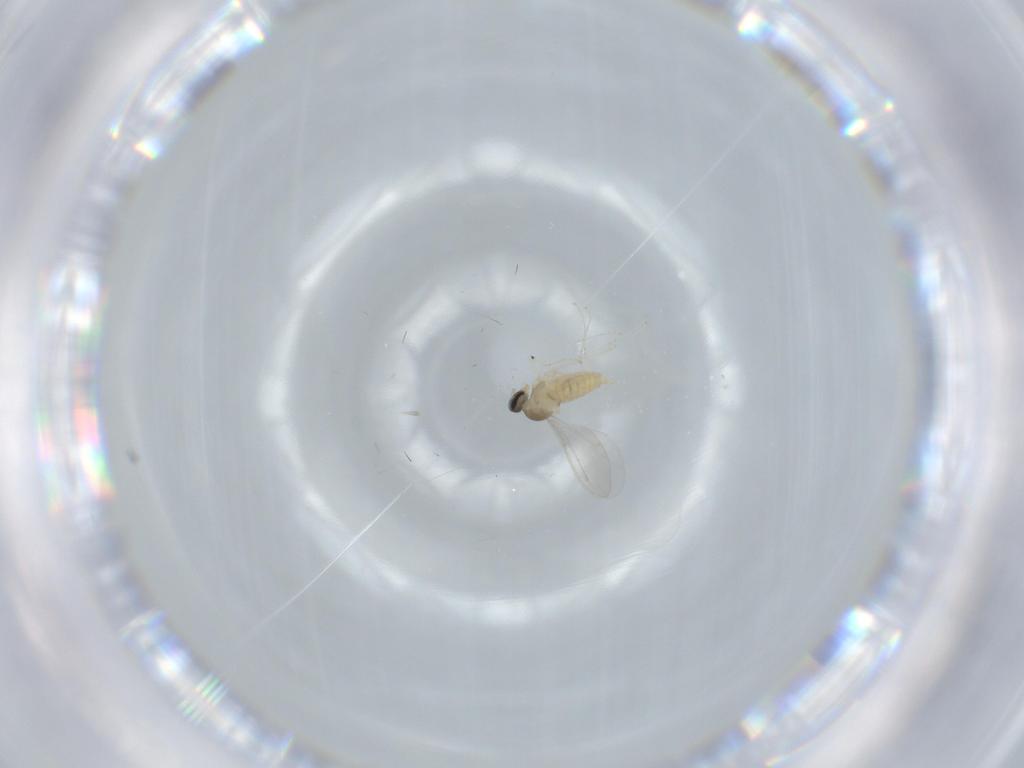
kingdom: Animalia
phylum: Arthropoda
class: Insecta
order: Diptera
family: Cecidomyiidae
